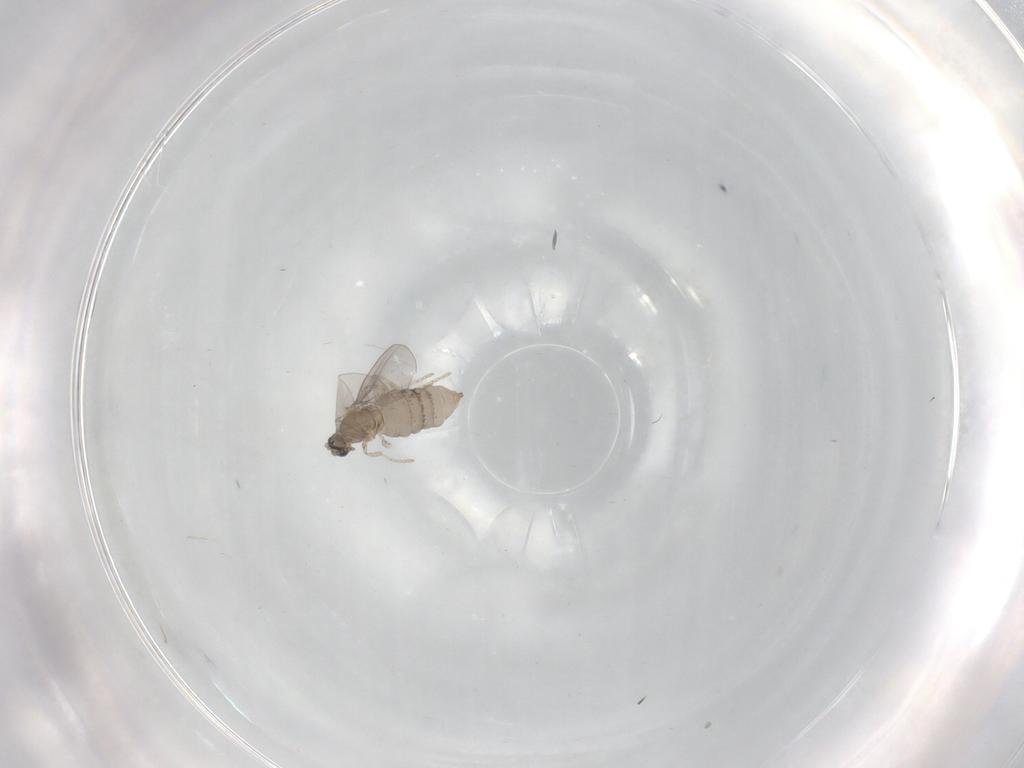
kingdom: Animalia
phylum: Arthropoda
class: Insecta
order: Diptera
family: Cecidomyiidae
